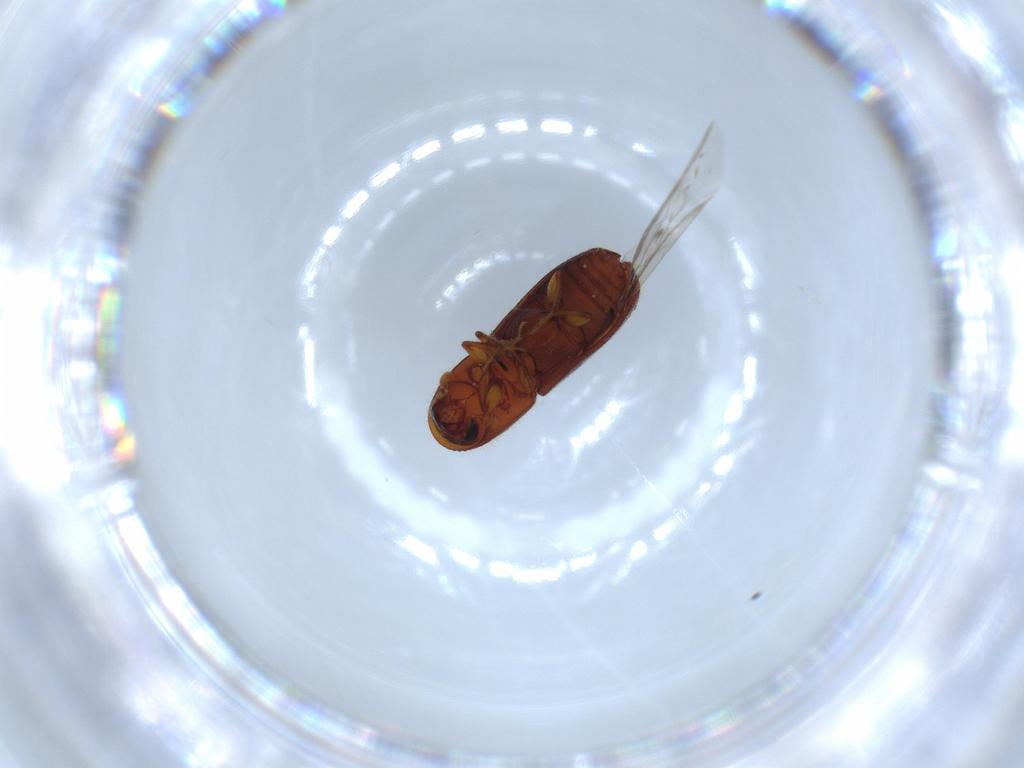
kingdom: Animalia
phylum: Arthropoda
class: Insecta
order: Coleoptera
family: Curculionidae
